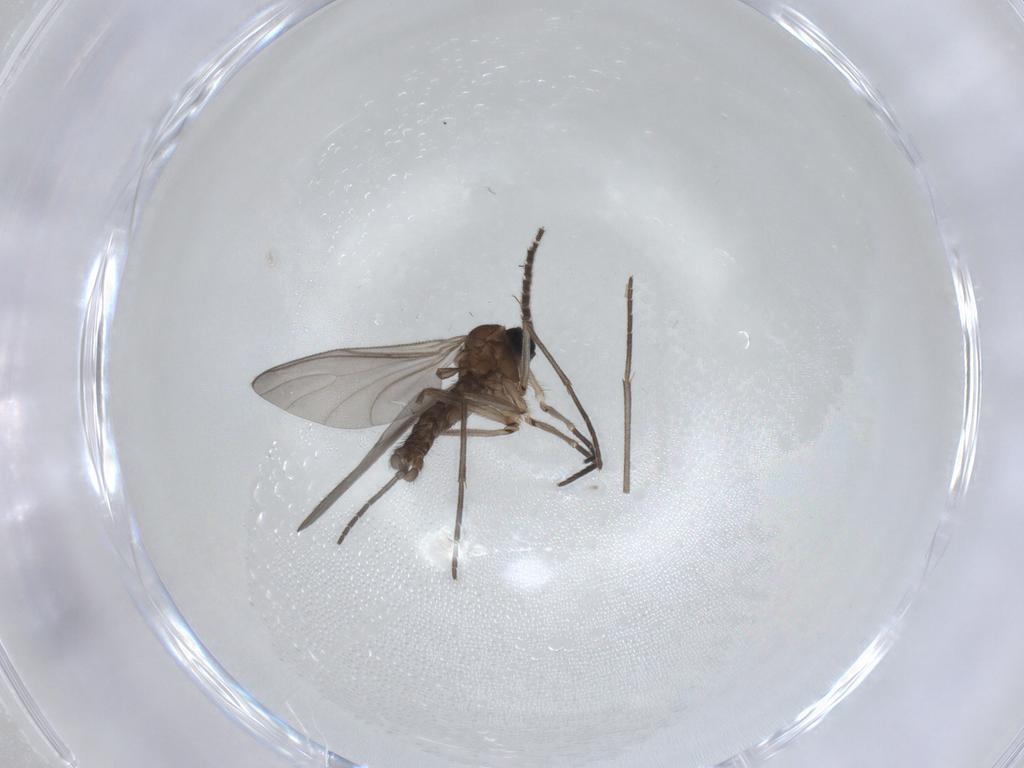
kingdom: Animalia
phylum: Arthropoda
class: Insecta
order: Diptera
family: Sciaridae
